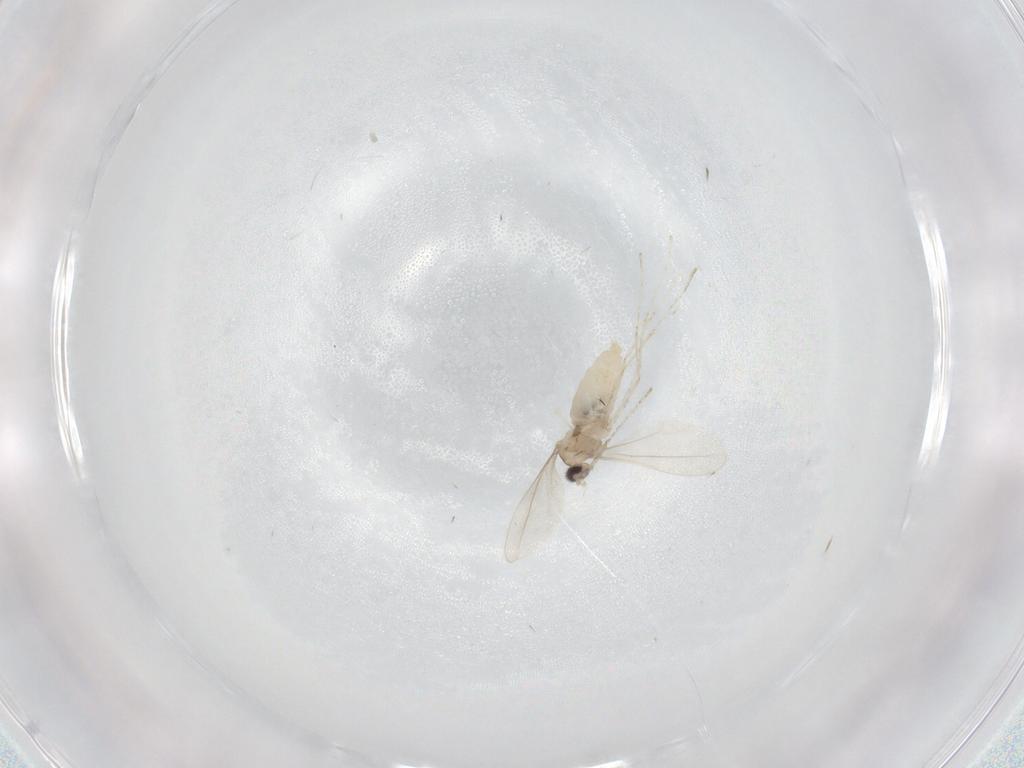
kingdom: Animalia
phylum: Arthropoda
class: Insecta
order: Diptera
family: Cecidomyiidae
